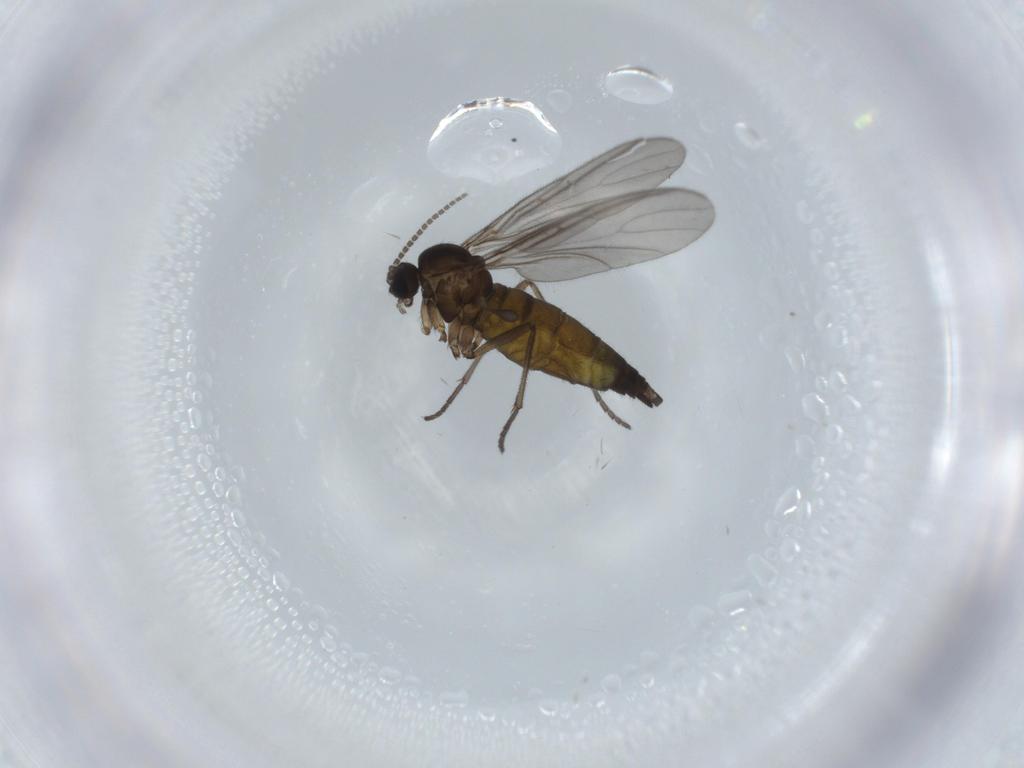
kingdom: Animalia
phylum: Arthropoda
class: Insecta
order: Diptera
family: Sciaridae
